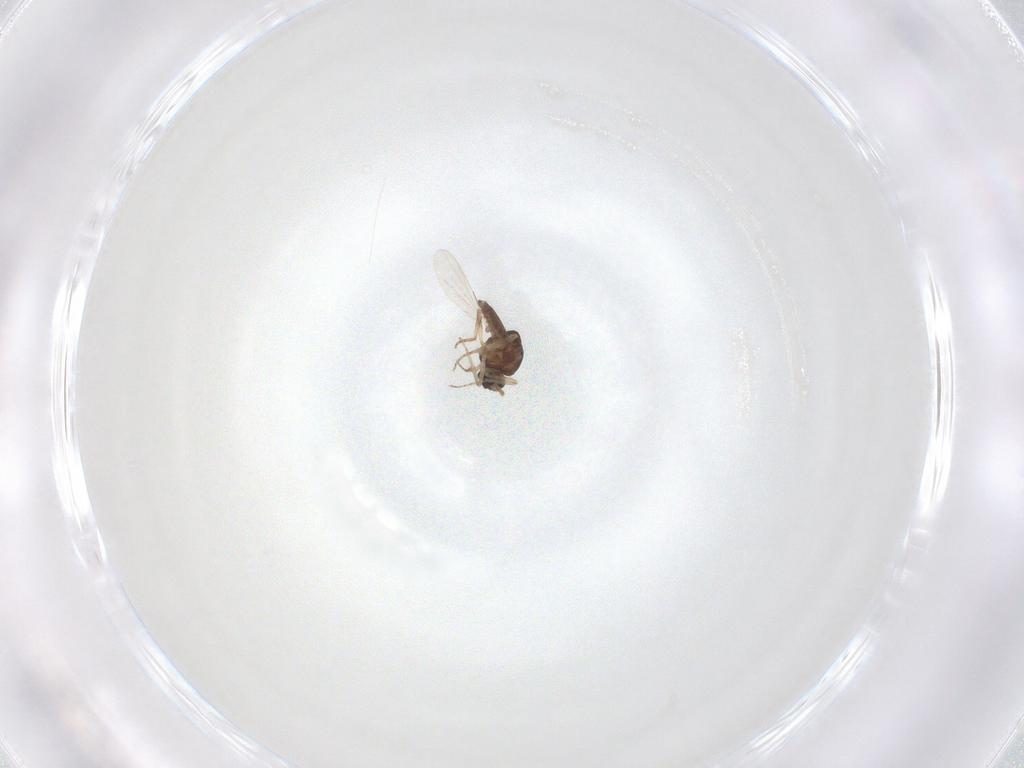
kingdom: Animalia
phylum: Arthropoda
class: Insecta
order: Diptera
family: Ceratopogonidae
